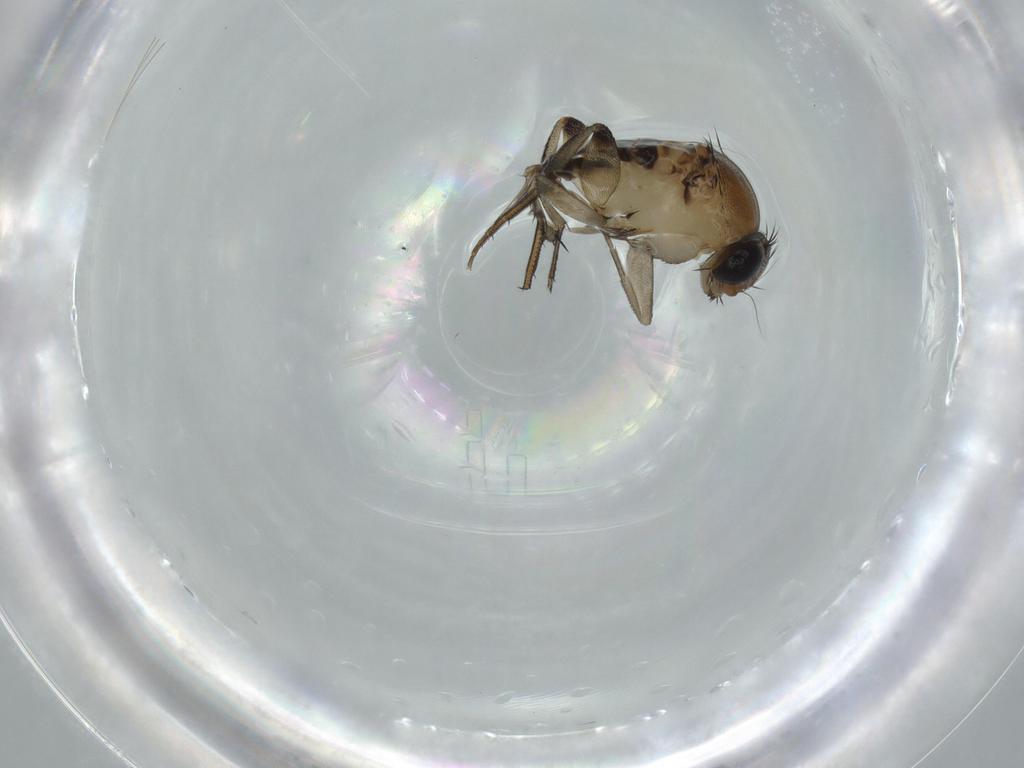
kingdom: Animalia
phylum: Arthropoda
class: Insecta
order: Diptera
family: Phoridae
